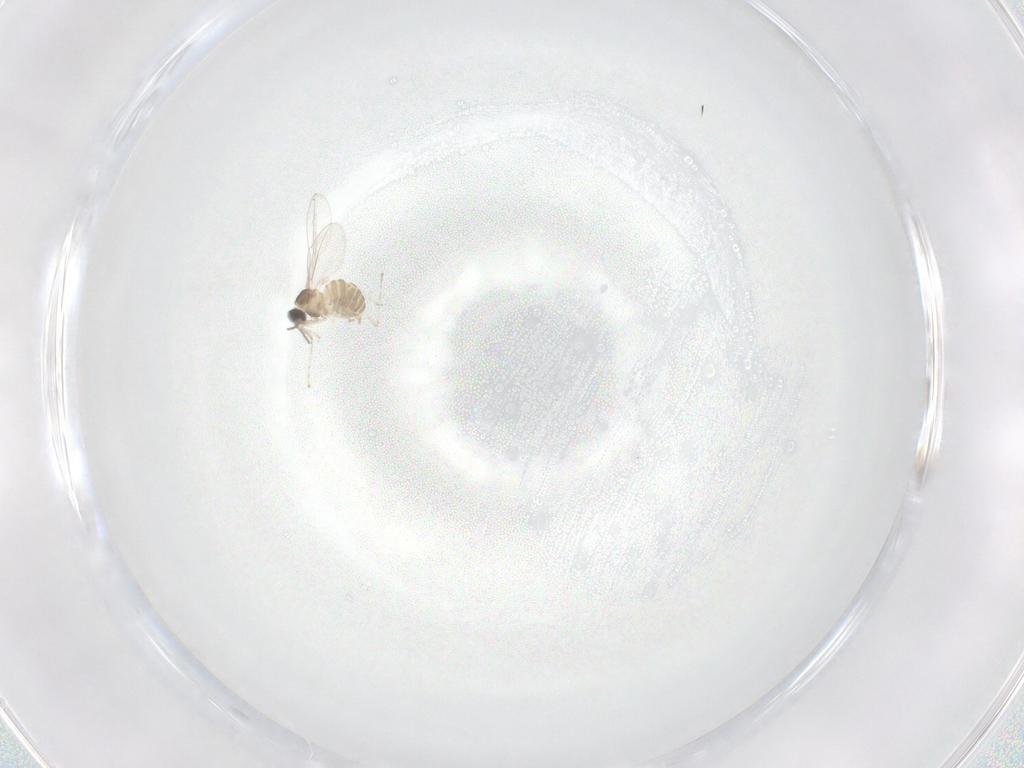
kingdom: Animalia
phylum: Arthropoda
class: Insecta
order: Diptera
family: Cecidomyiidae
